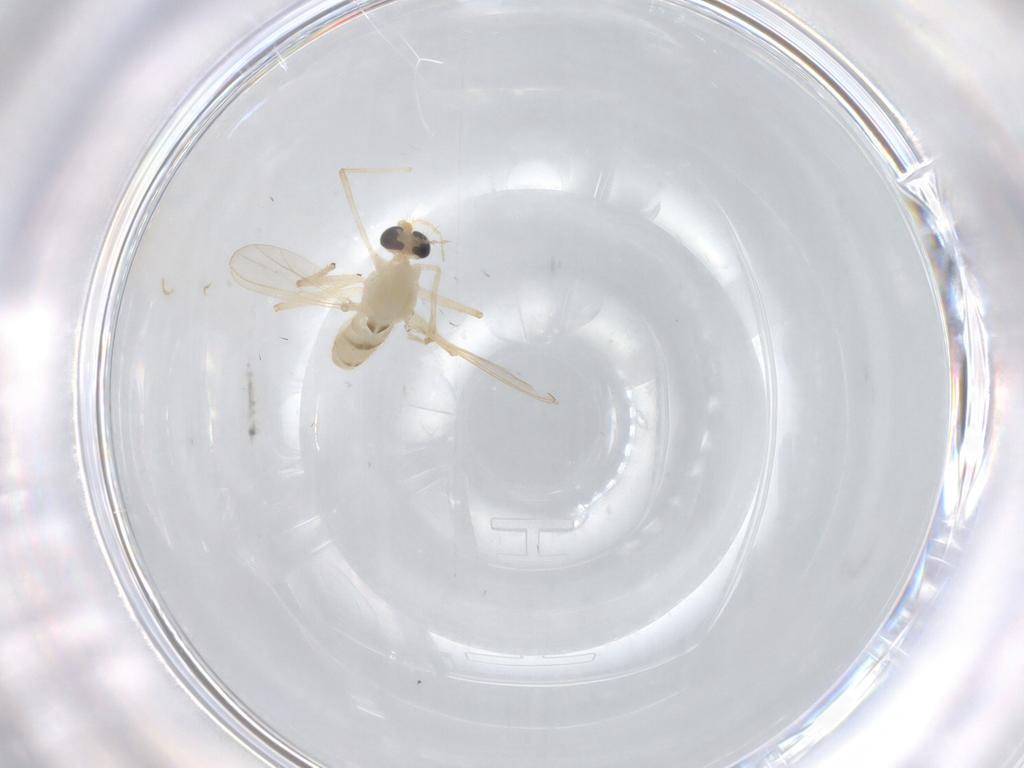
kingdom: Animalia
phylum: Arthropoda
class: Insecta
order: Diptera
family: Chironomidae
